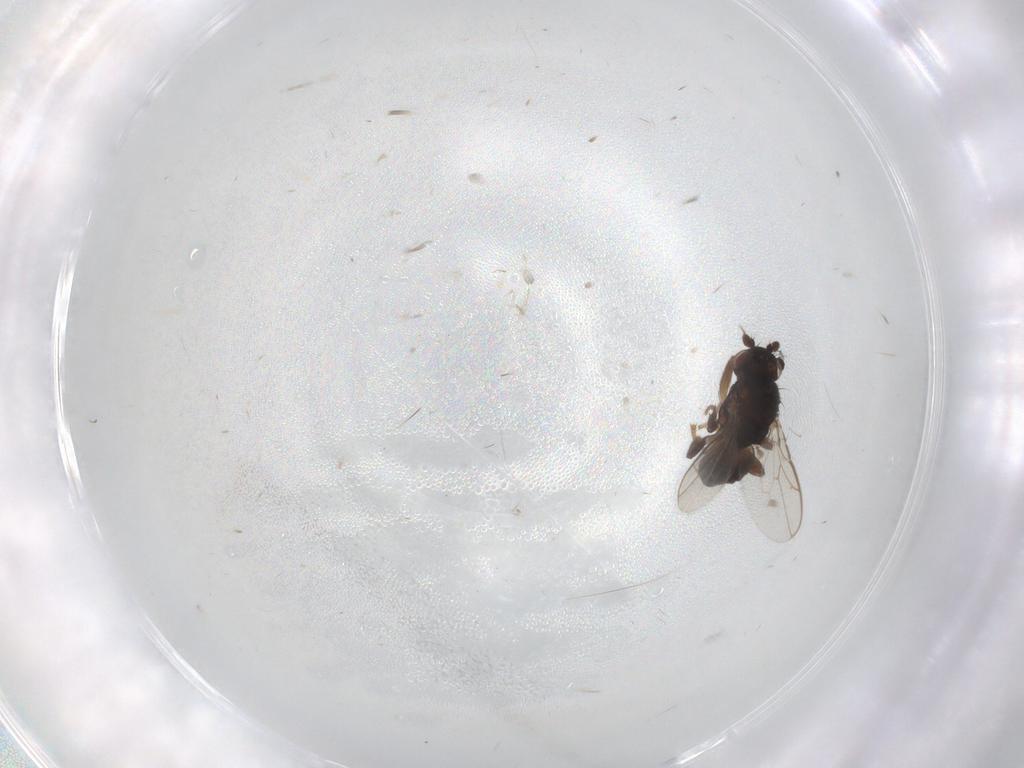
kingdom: Animalia
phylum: Arthropoda
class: Insecta
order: Diptera
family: Sphaeroceridae
